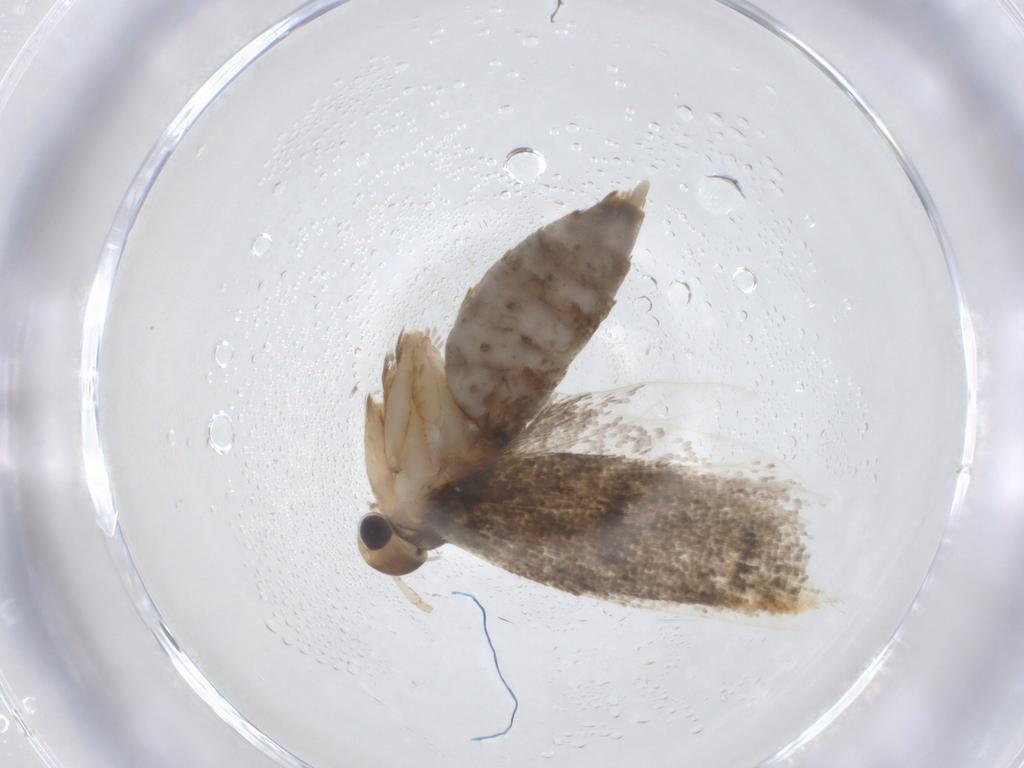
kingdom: Animalia
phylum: Arthropoda
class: Insecta
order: Lepidoptera
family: Lecithoceridae
